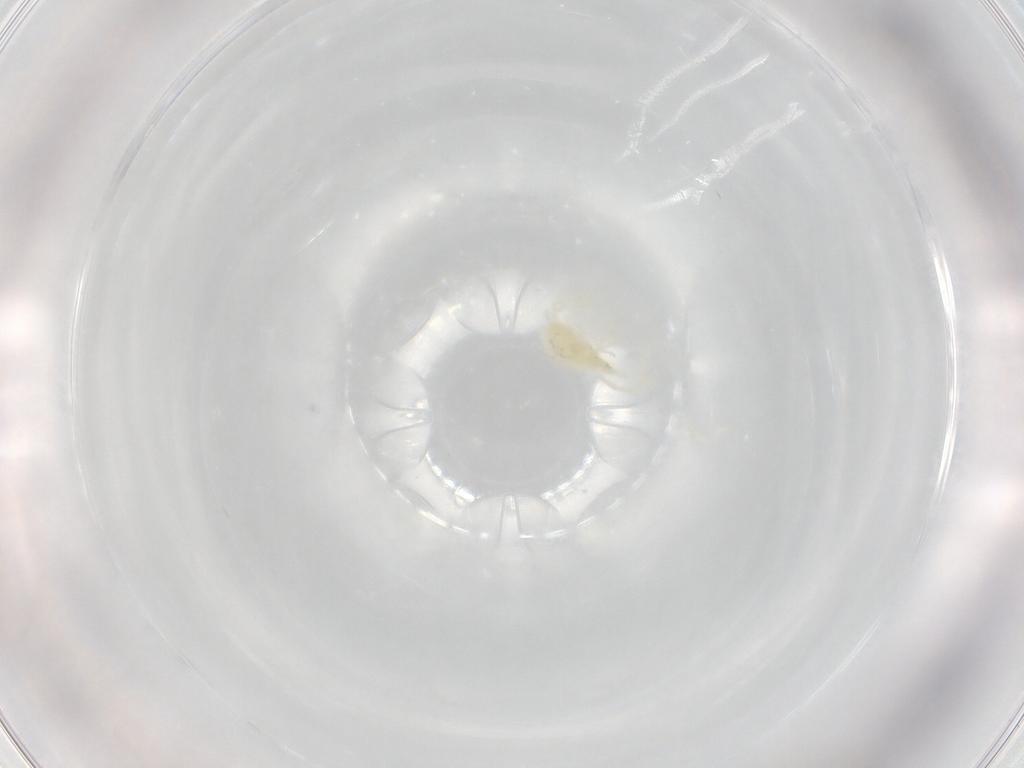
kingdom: Animalia
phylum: Arthropoda
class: Arachnida
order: Trombidiformes
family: Erythraeidae
